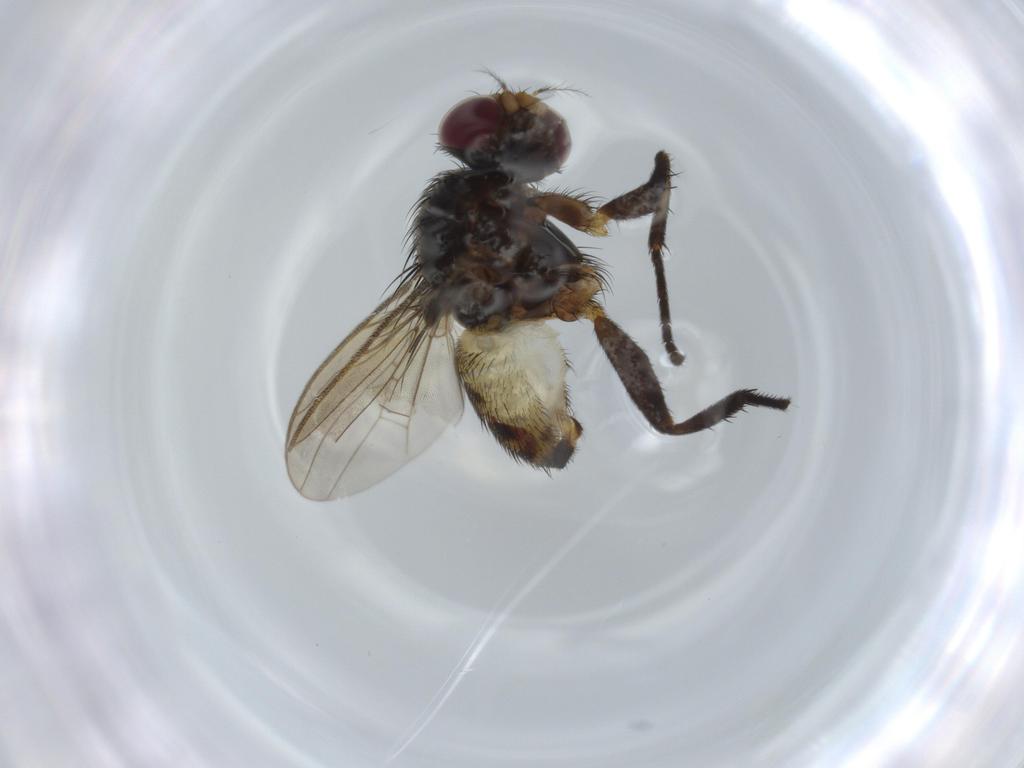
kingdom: Animalia
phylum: Arthropoda
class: Insecta
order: Diptera
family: Anthomyiidae
